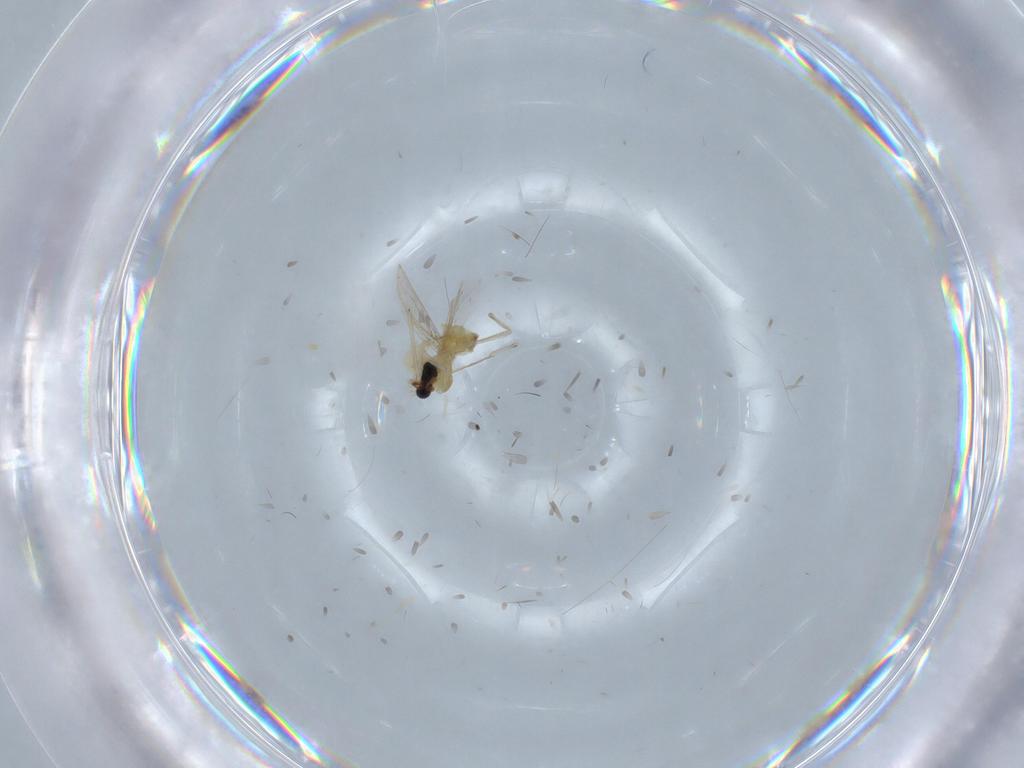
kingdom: Animalia
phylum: Arthropoda
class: Insecta
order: Diptera
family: Chironomidae
